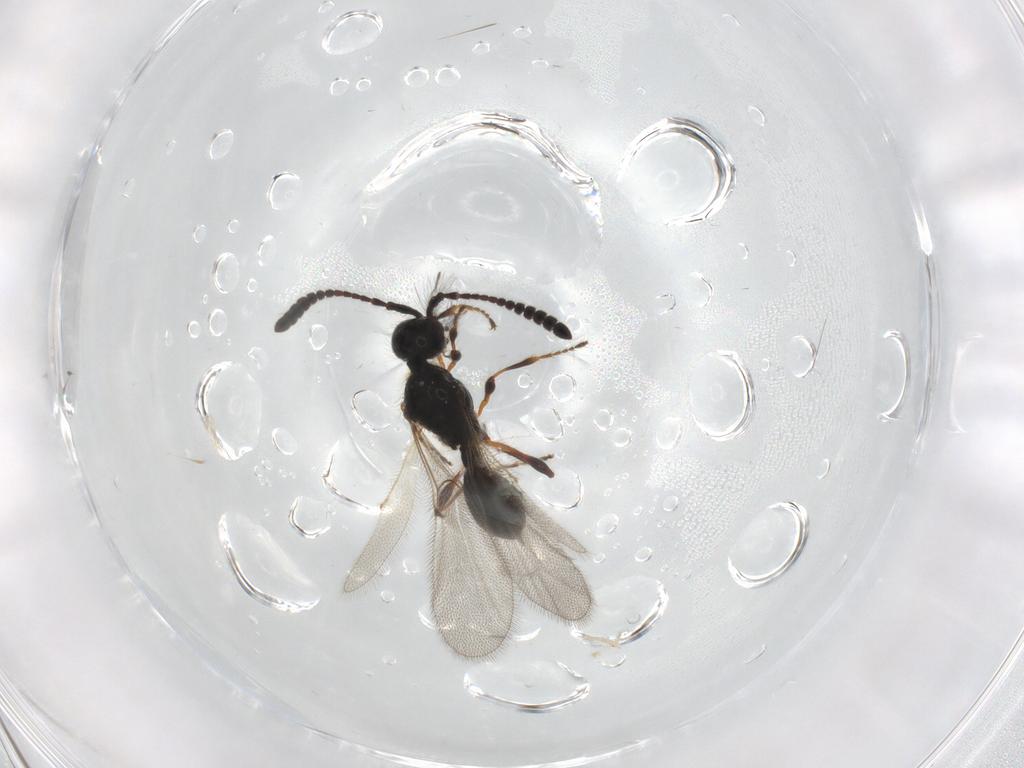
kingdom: Animalia
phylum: Arthropoda
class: Insecta
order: Hymenoptera
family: Diapriidae
